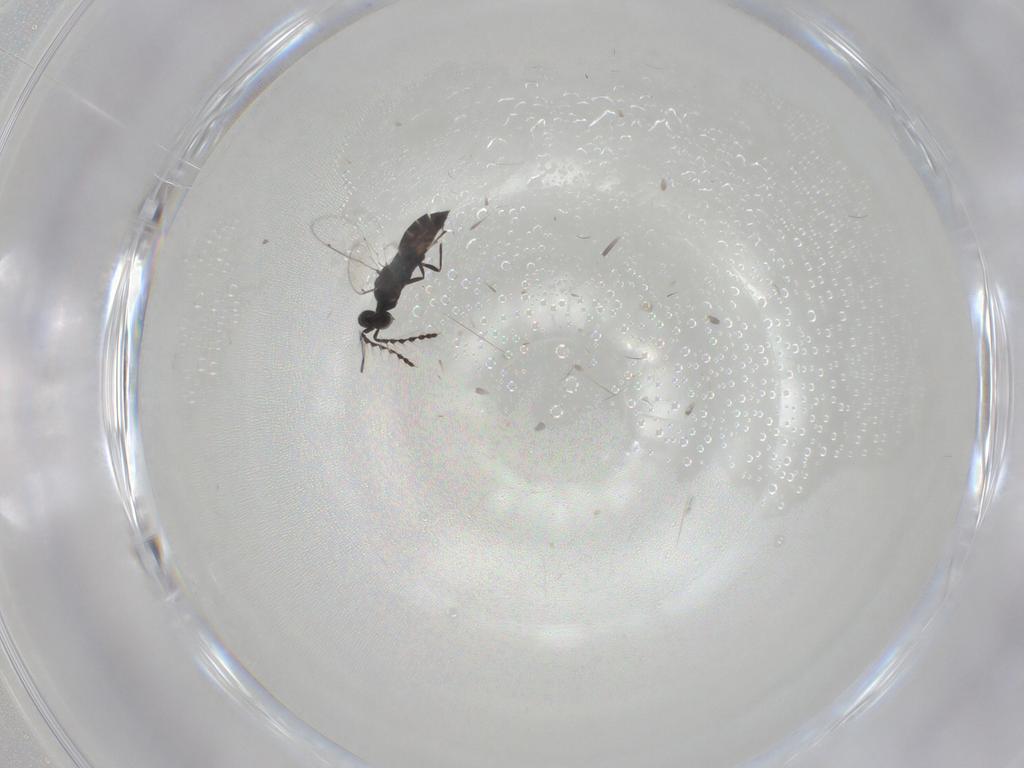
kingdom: Animalia
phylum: Arthropoda
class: Insecta
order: Hymenoptera
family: Eulophidae
